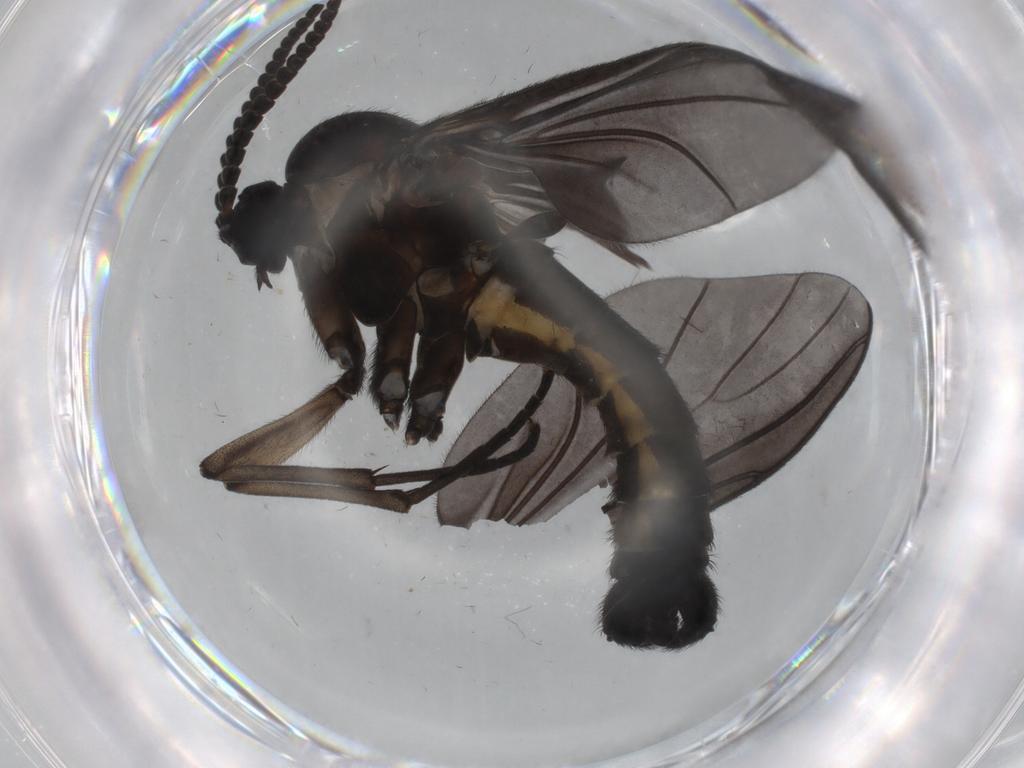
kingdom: Animalia
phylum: Arthropoda
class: Insecta
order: Diptera
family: Sciaridae
